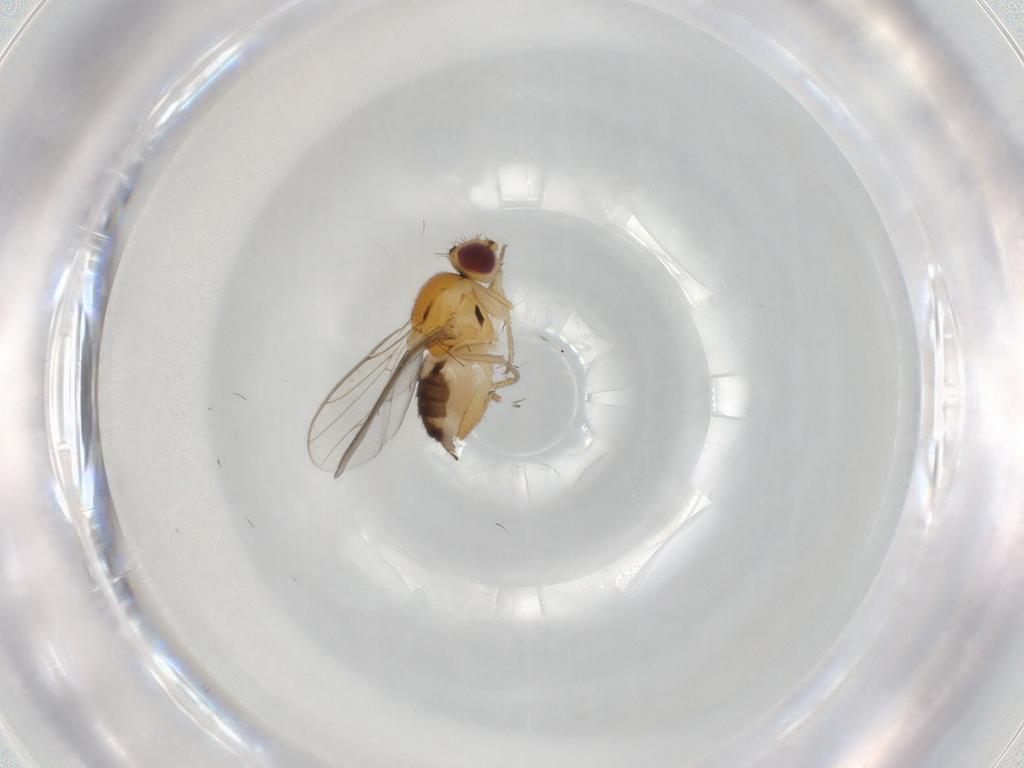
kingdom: Animalia
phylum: Arthropoda
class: Insecta
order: Diptera
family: Chloropidae
